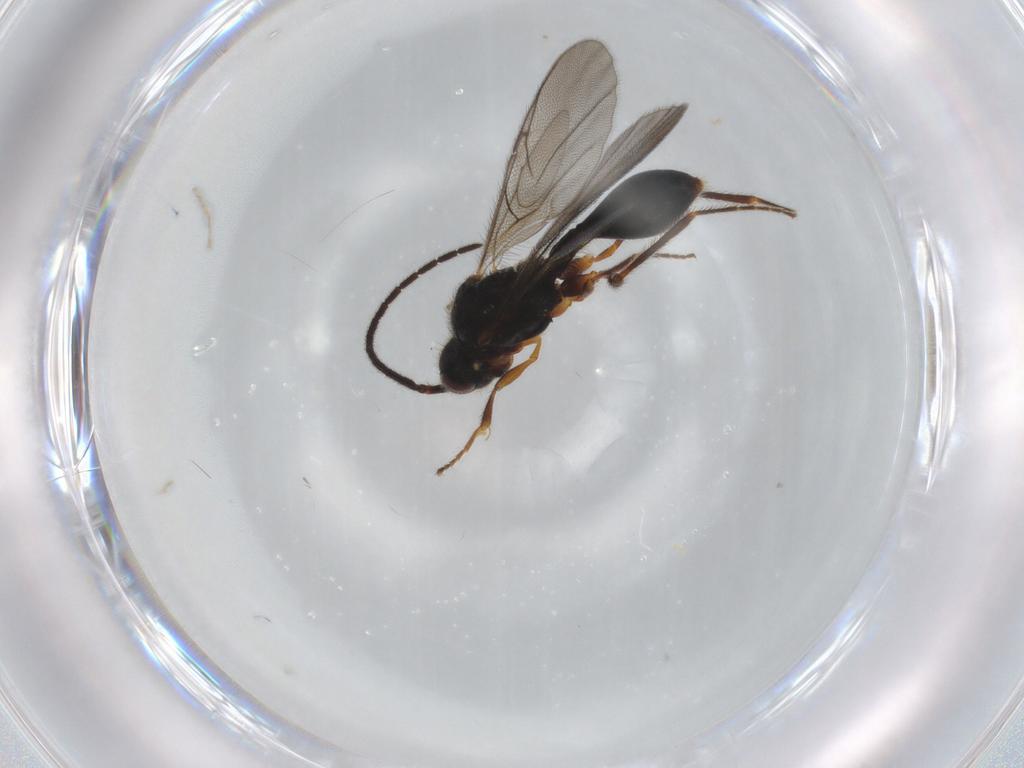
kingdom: Animalia
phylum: Arthropoda
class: Insecta
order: Hymenoptera
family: Diapriidae
